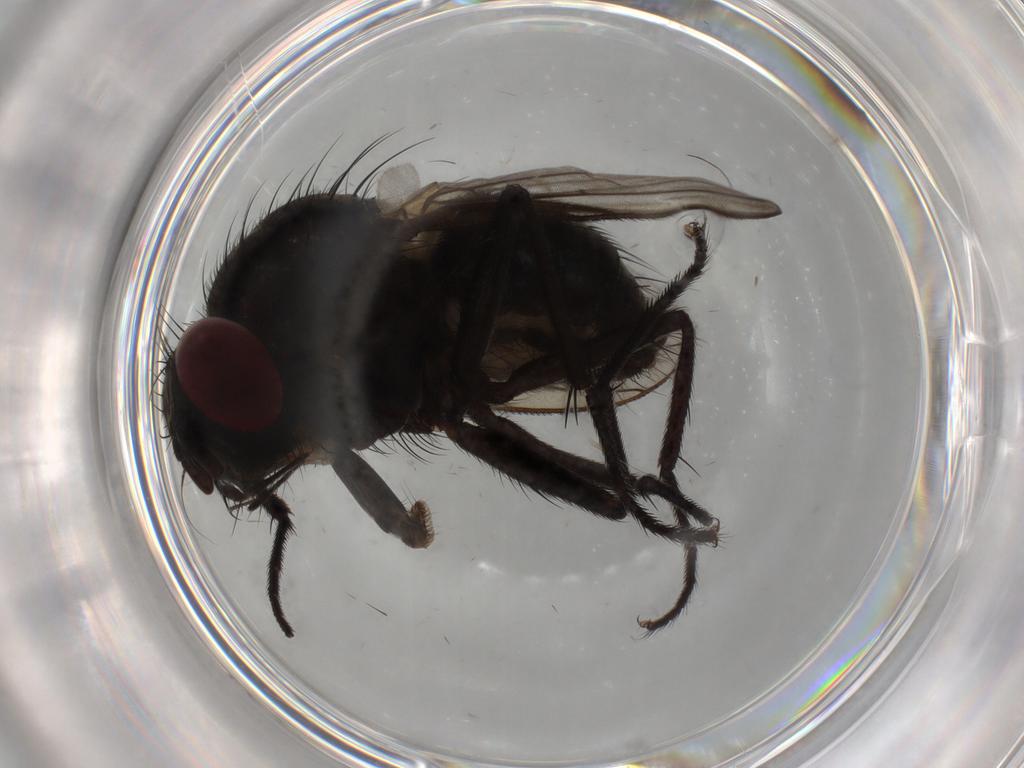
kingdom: Animalia
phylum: Arthropoda
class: Insecta
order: Diptera
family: Muscidae
